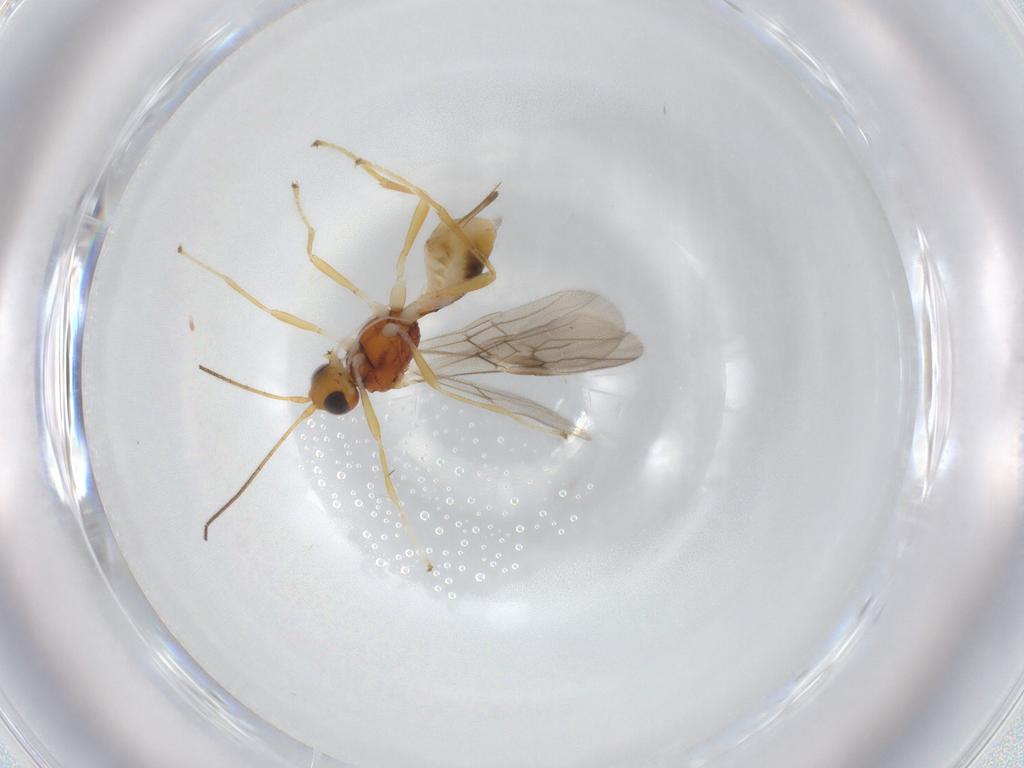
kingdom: Animalia
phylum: Arthropoda
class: Insecta
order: Hymenoptera
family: Braconidae
